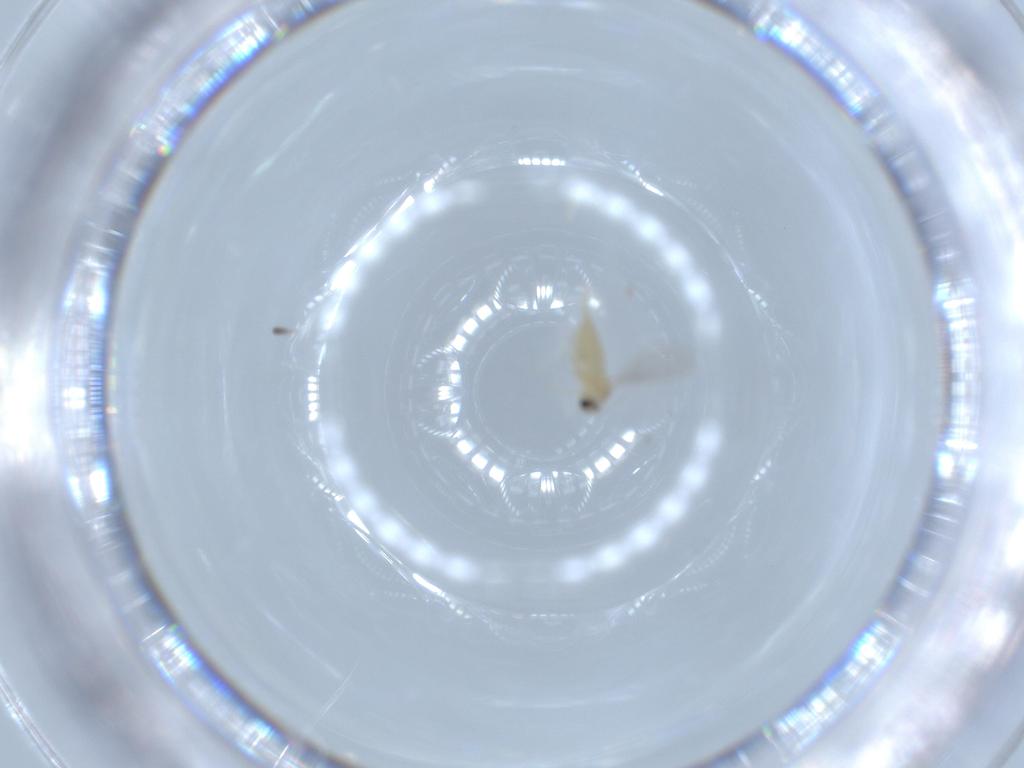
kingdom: Animalia
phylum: Arthropoda
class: Insecta
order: Diptera
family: Cecidomyiidae
